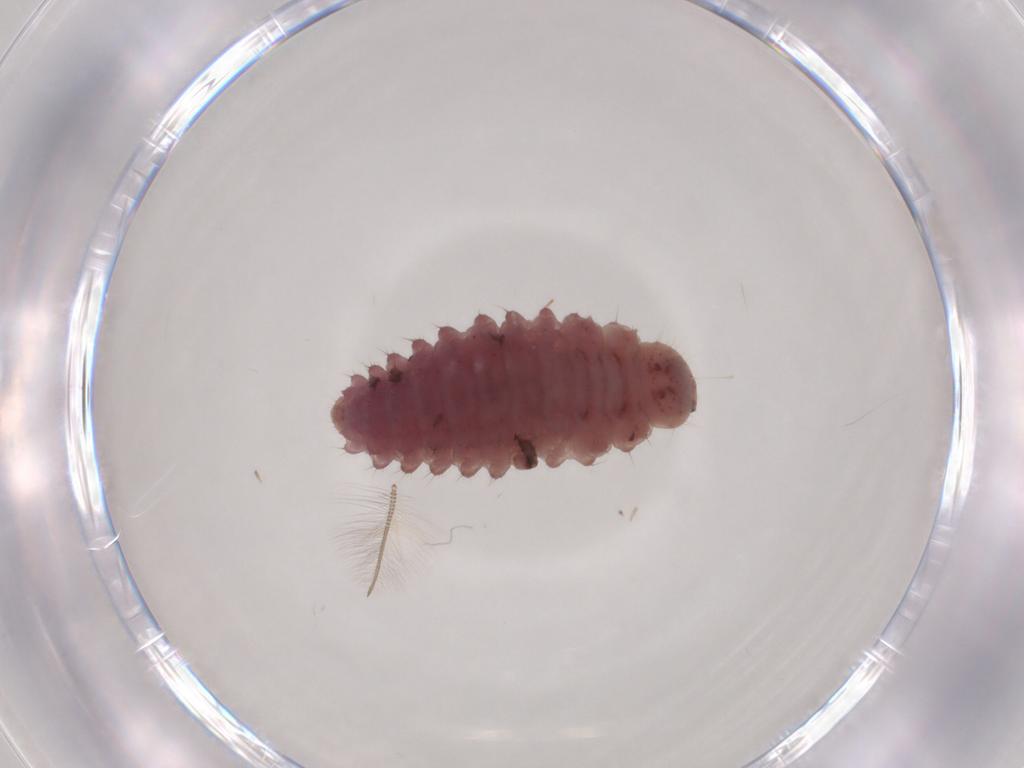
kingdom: Animalia
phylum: Arthropoda
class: Insecta
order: Coleoptera
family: Coccinellidae
